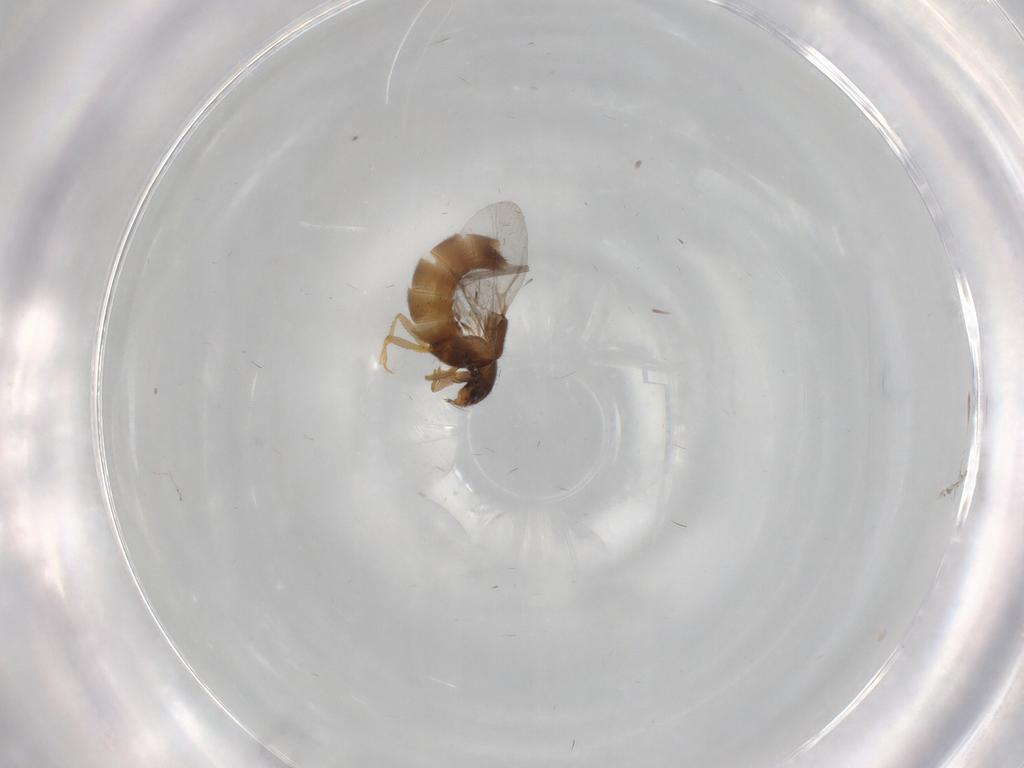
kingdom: Animalia
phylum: Arthropoda
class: Insecta
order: Coleoptera
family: Staphylinidae
